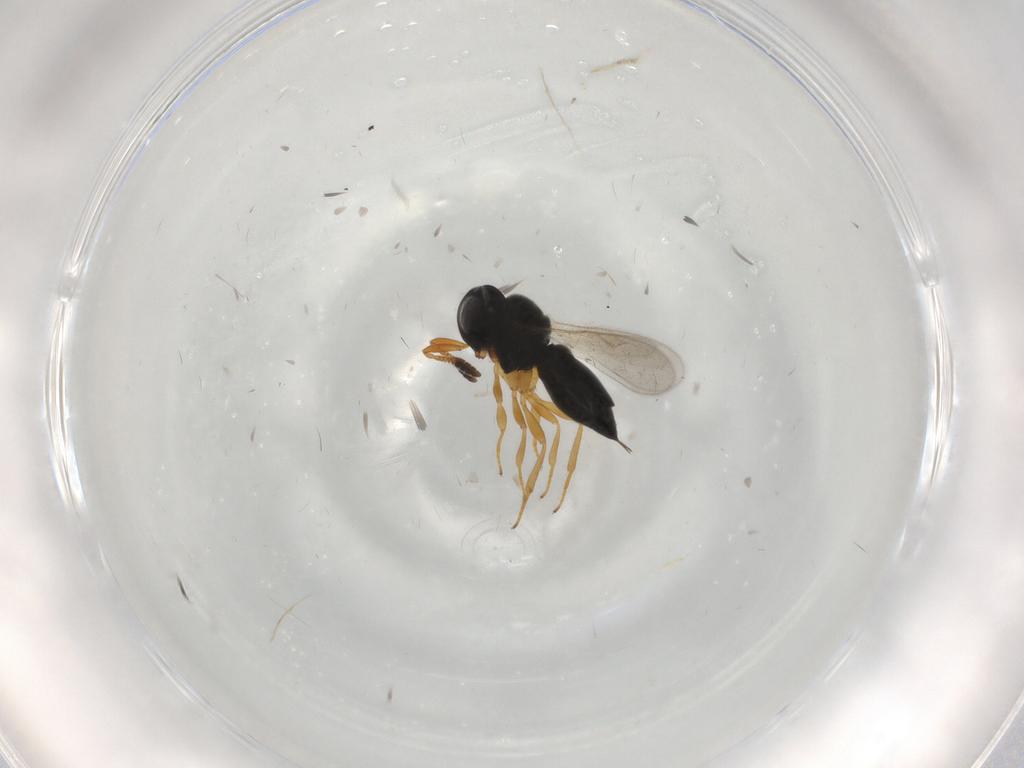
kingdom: Animalia
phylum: Arthropoda
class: Insecta
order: Hymenoptera
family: Scelionidae
